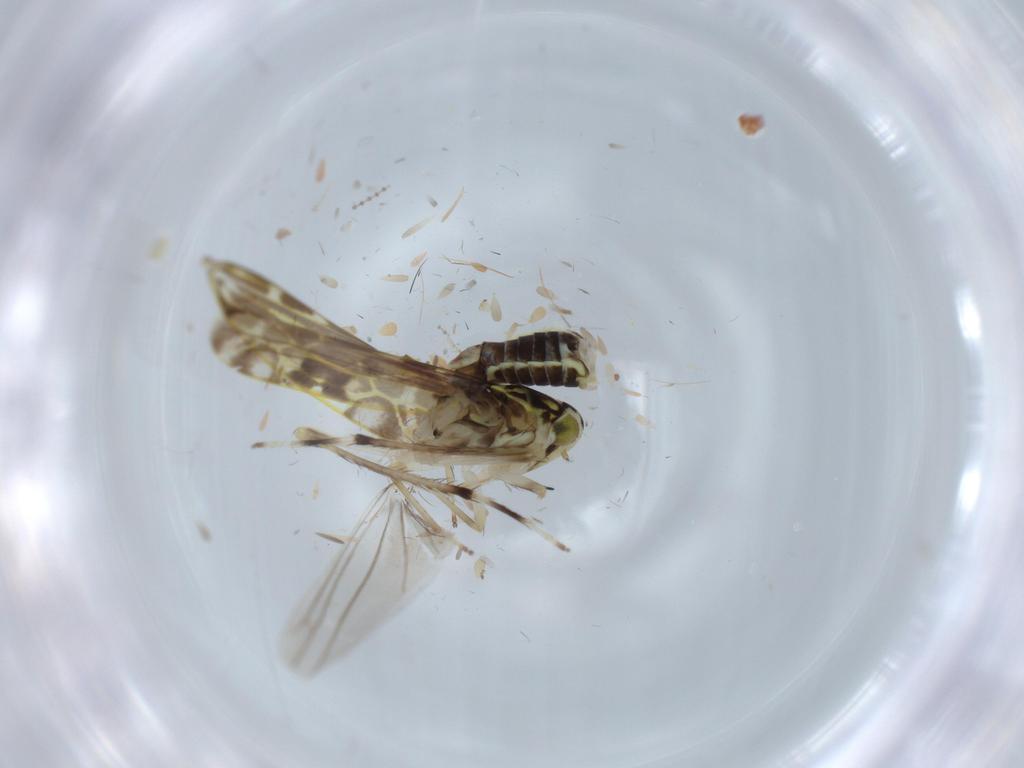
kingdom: Animalia
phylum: Arthropoda
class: Insecta
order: Hemiptera
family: Cicadellidae
